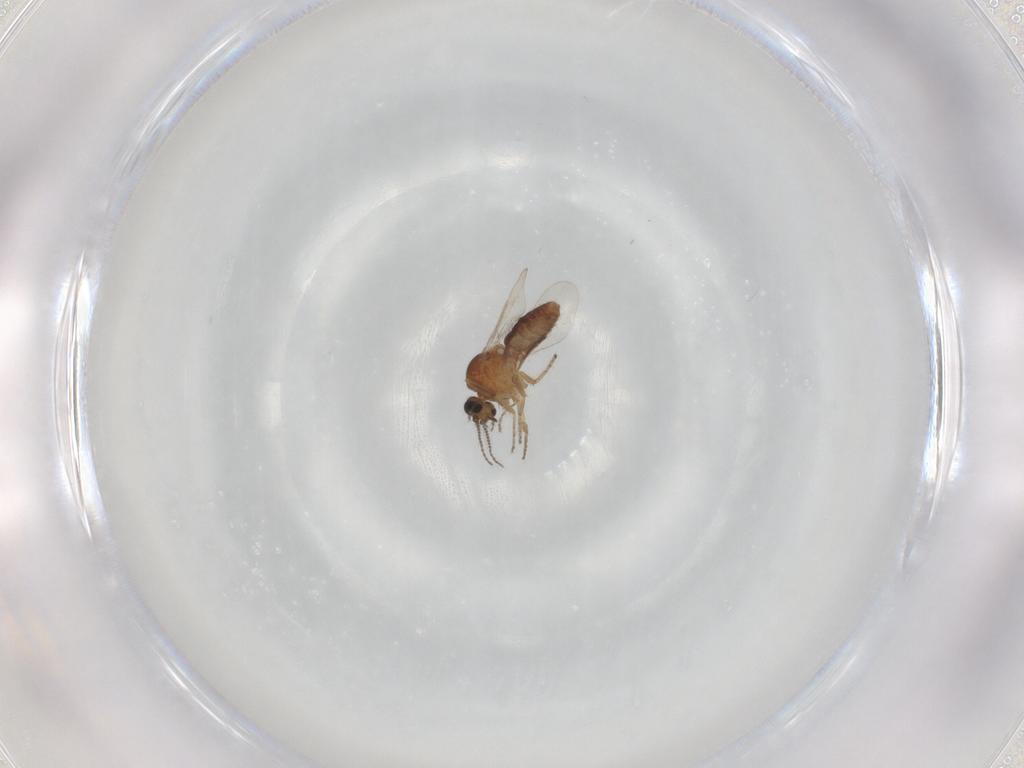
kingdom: Animalia
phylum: Arthropoda
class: Insecta
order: Diptera
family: Ceratopogonidae
